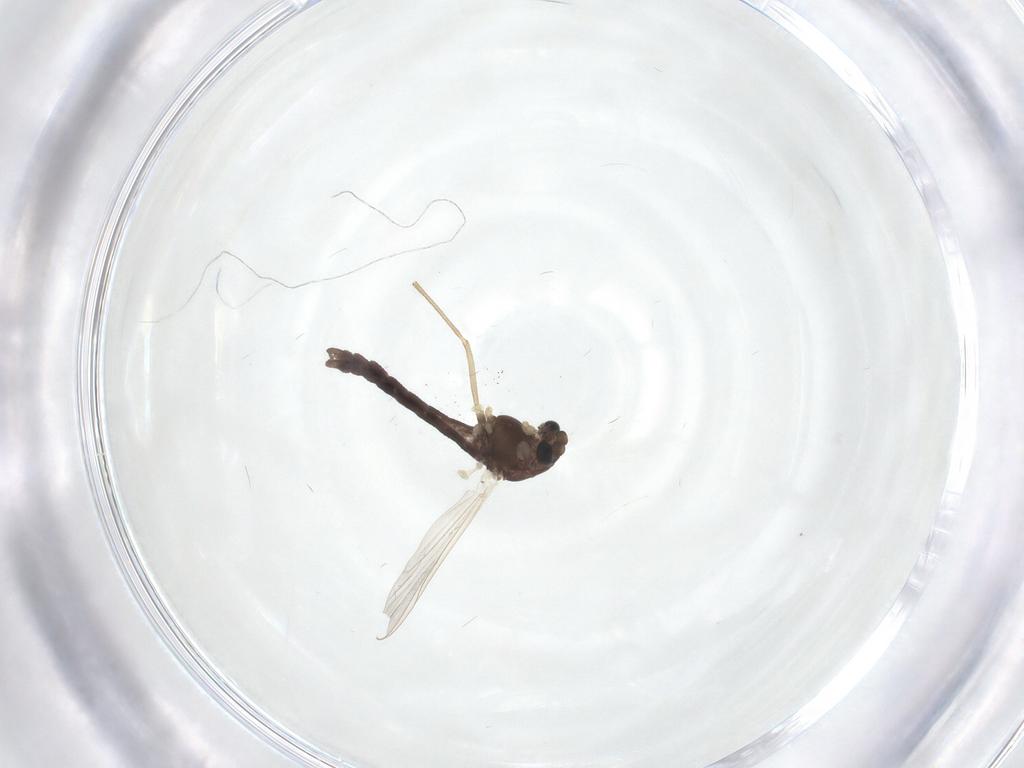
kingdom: Animalia
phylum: Arthropoda
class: Insecta
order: Diptera
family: Chironomidae
